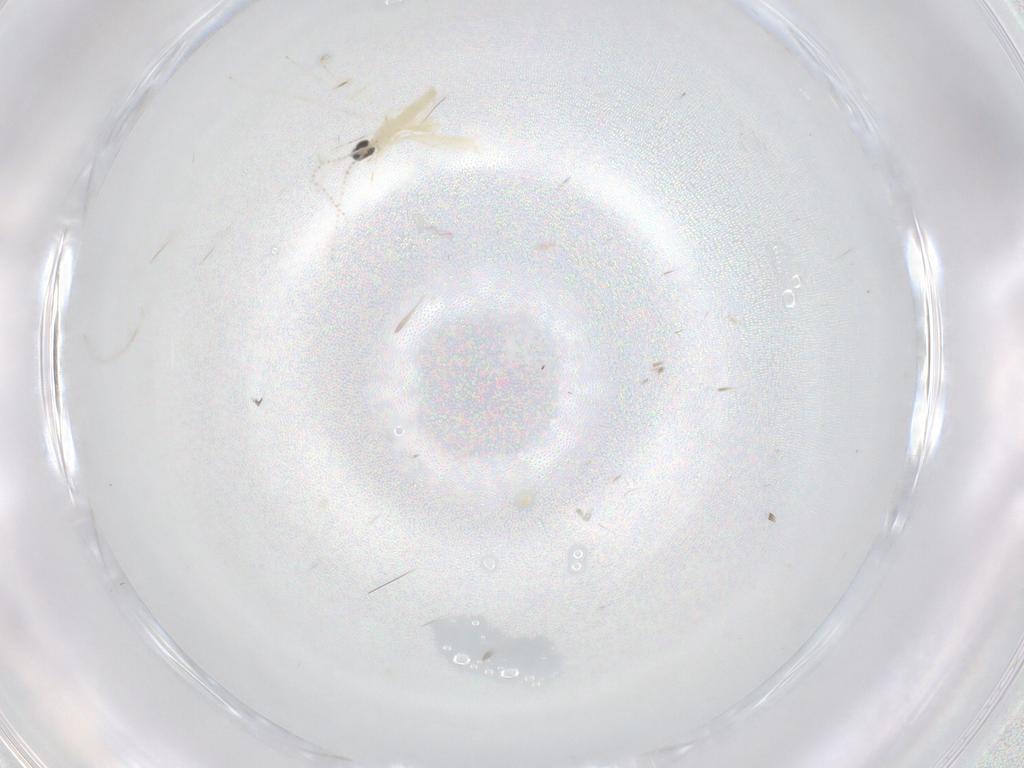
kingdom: Animalia
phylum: Arthropoda
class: Insecta
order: Diptera
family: Cecidomyiidae
